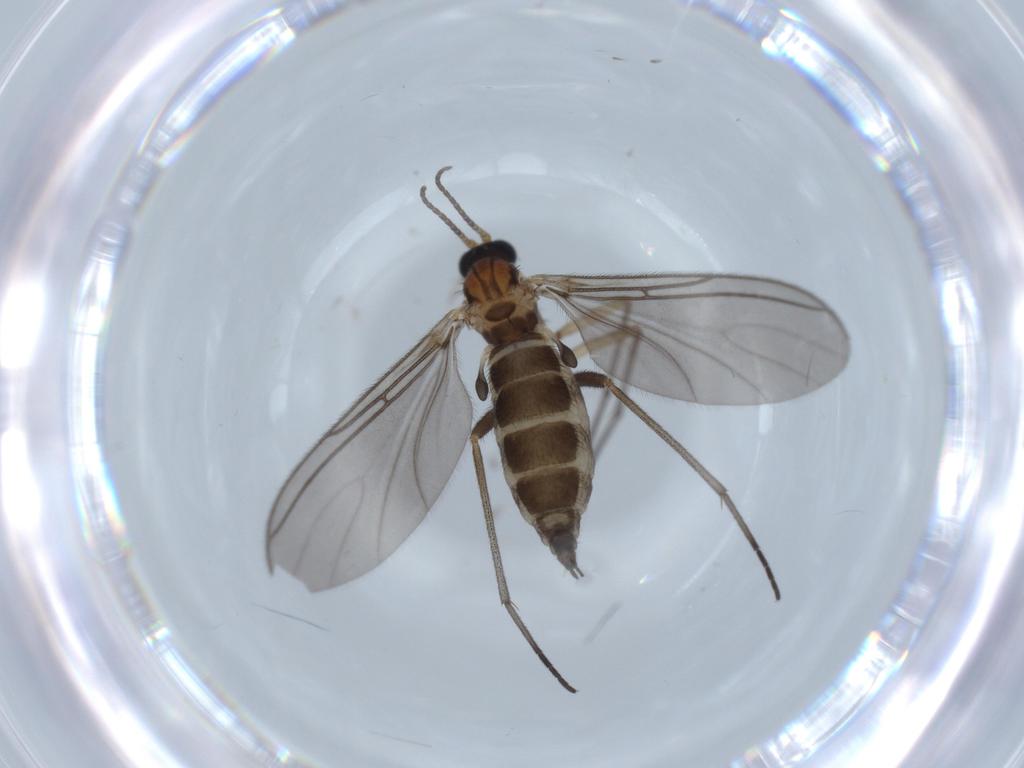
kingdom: Animalia
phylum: Arthropoda
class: Insecta
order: Diptera
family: Sciaridae
